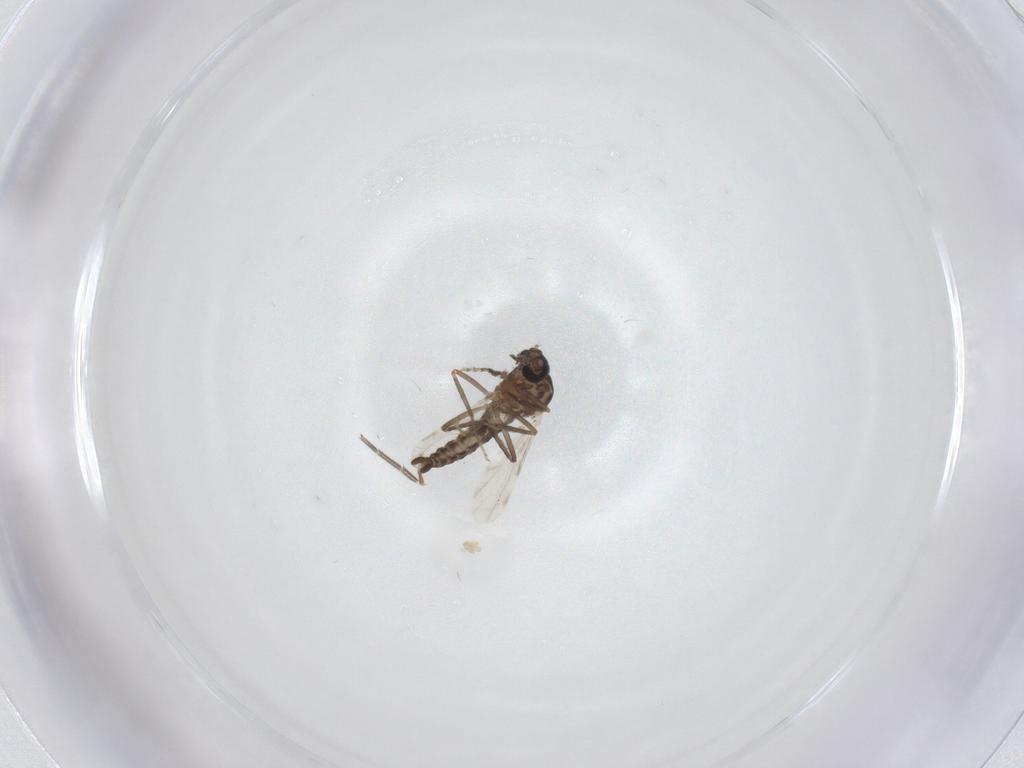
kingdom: Animalia
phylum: Arthropoda
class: Insecta
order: Diptera
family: Ceratopogonidae
